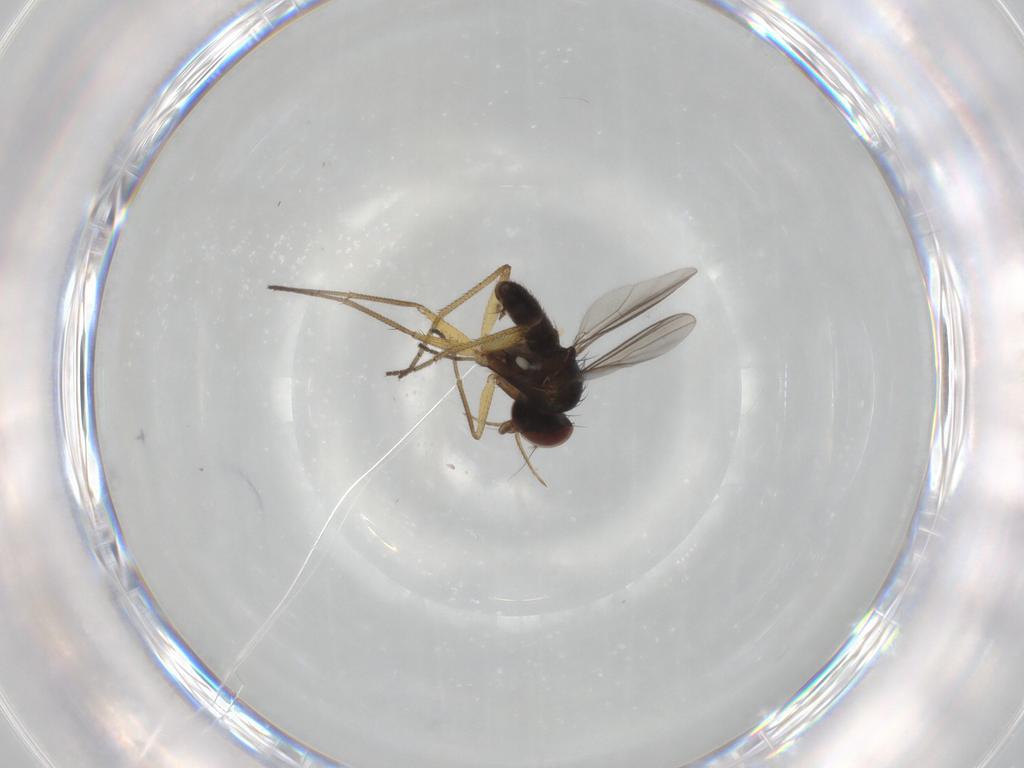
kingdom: Animalia
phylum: Arthropoda
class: Insecta
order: Diptera
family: Dolichopodidae
